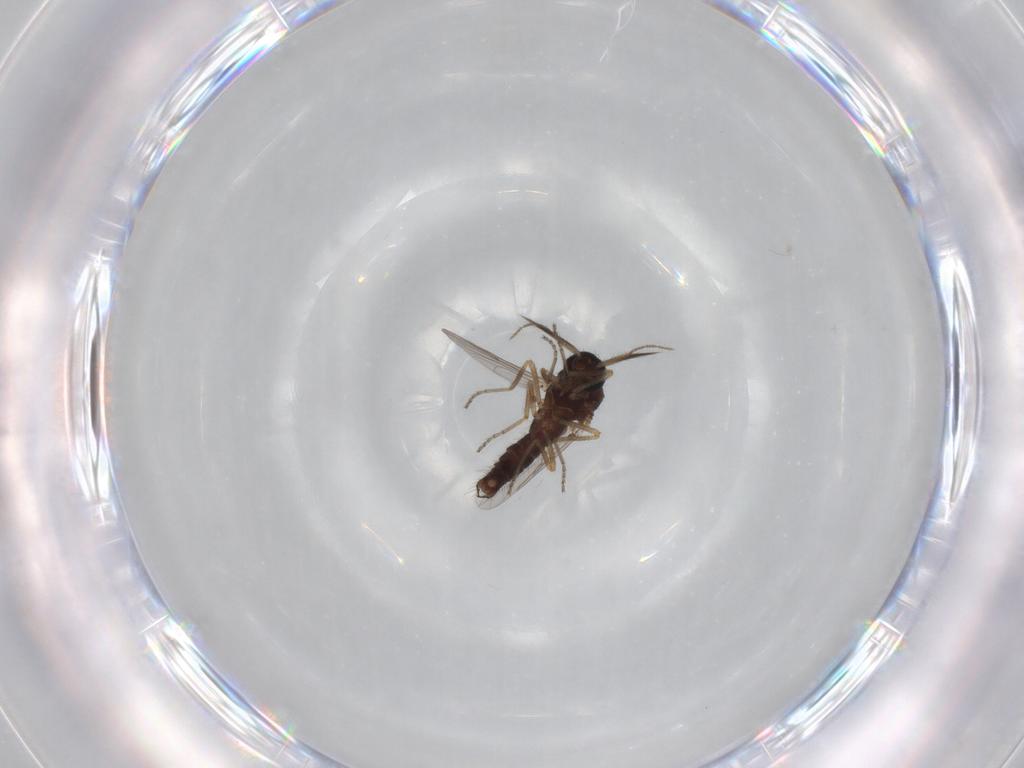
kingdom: Animalia
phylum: Arthropoda
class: Insecta
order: Diptera
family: Ceratopogonidae
